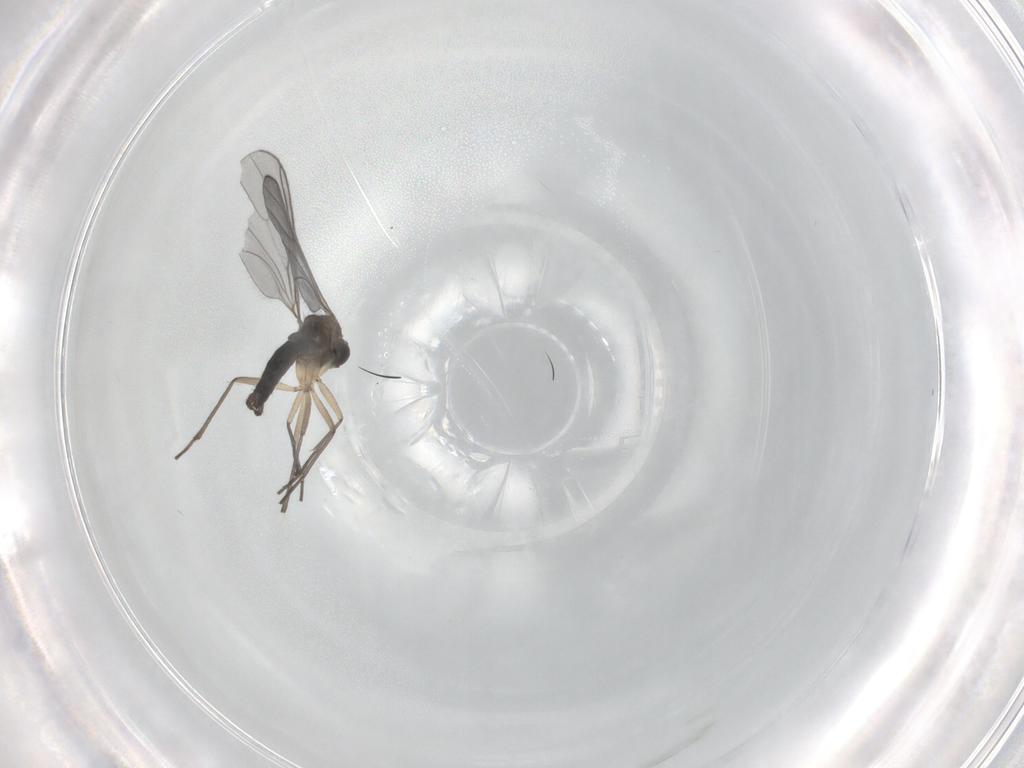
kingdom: Animalia
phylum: Arthropoda
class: Insecta
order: Diptera
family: Sciaridae
